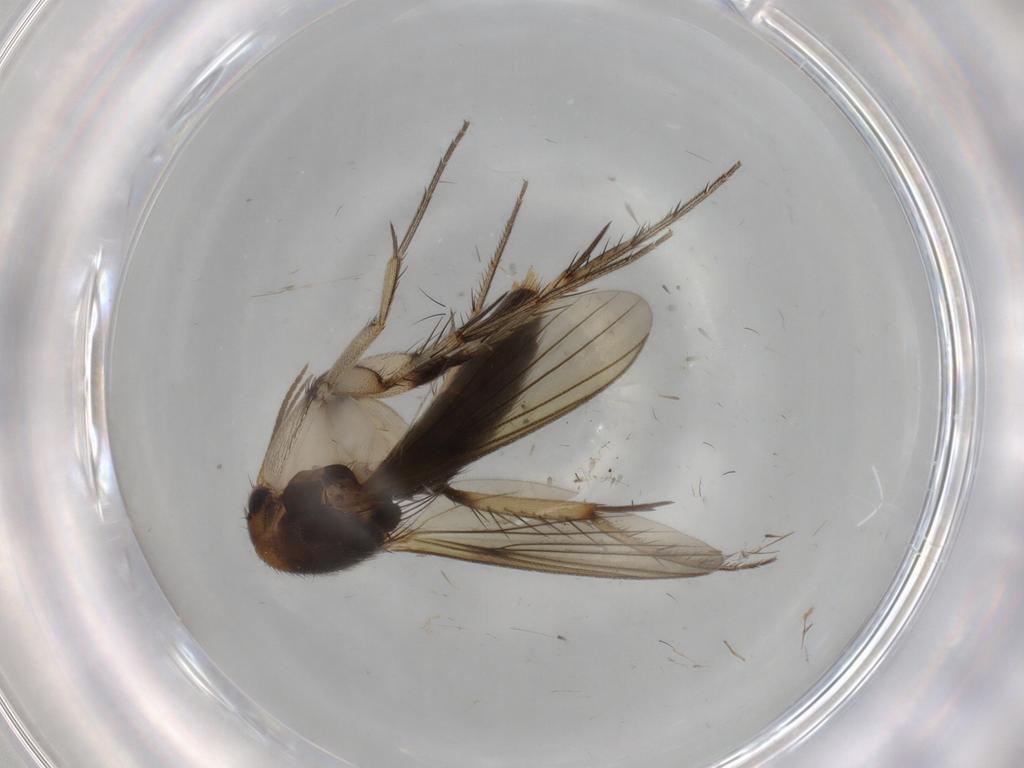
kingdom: Animalia
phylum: Arthropoda
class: Insecta
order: Diptera
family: Mycetophilidae
